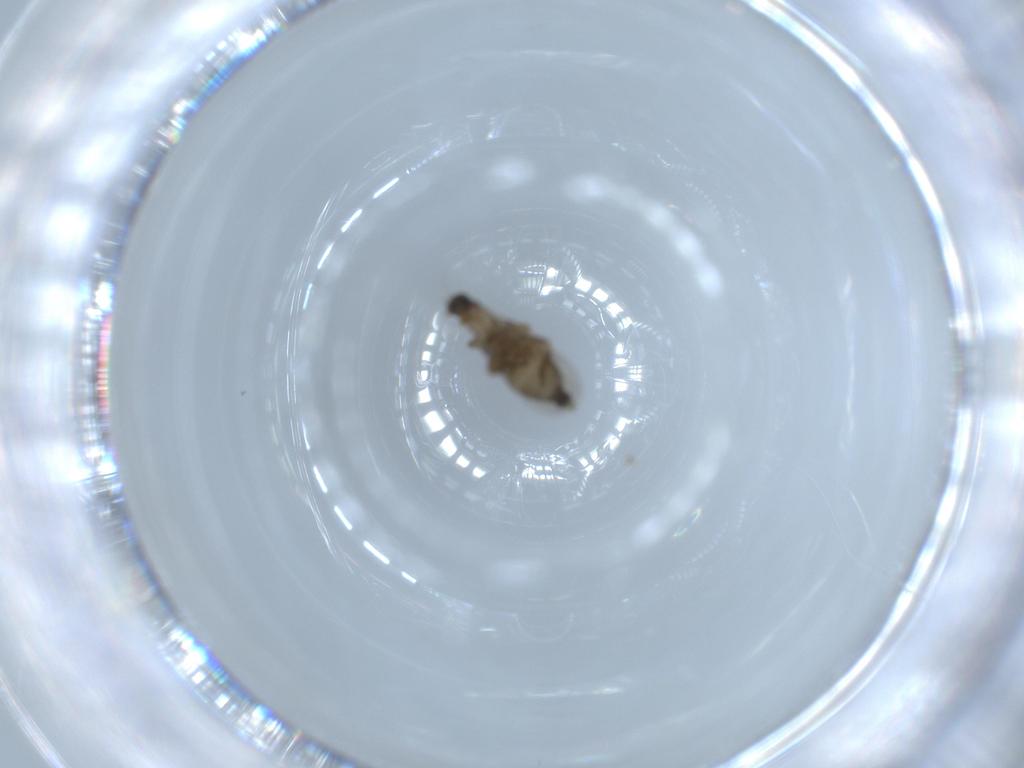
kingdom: Animalia
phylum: Arthropoda
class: Insecta
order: Diptera
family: Phoridae
